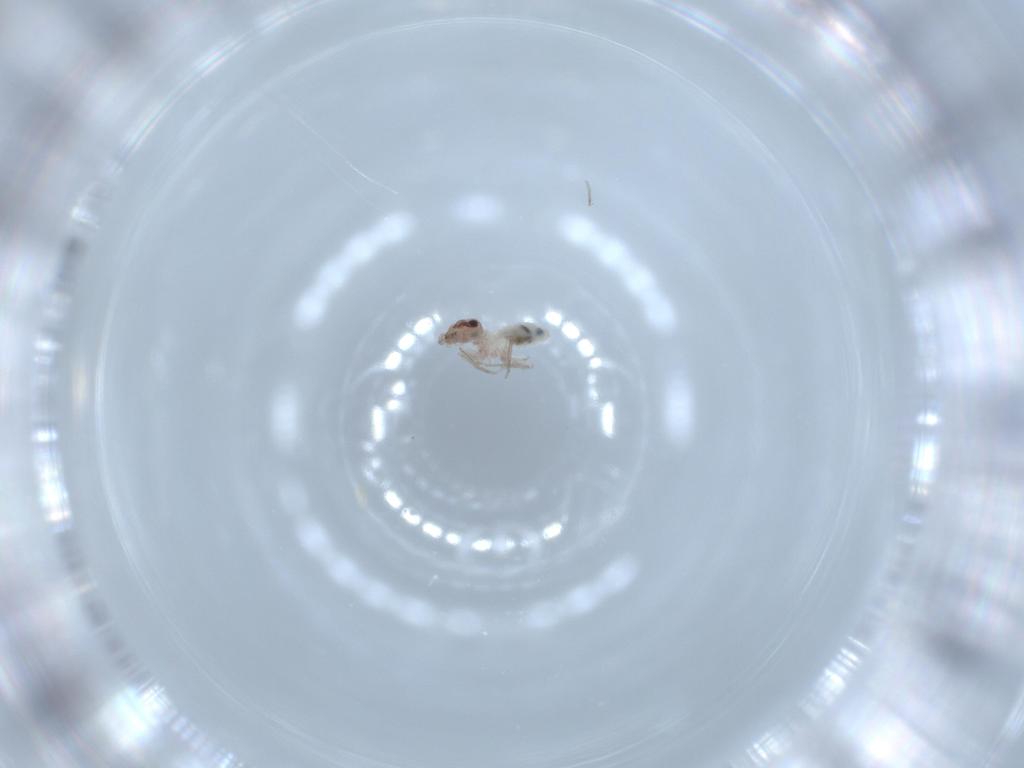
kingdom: Animalia
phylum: Arthropoda
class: Insecta
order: Psocodea
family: Lepidopsocidae
